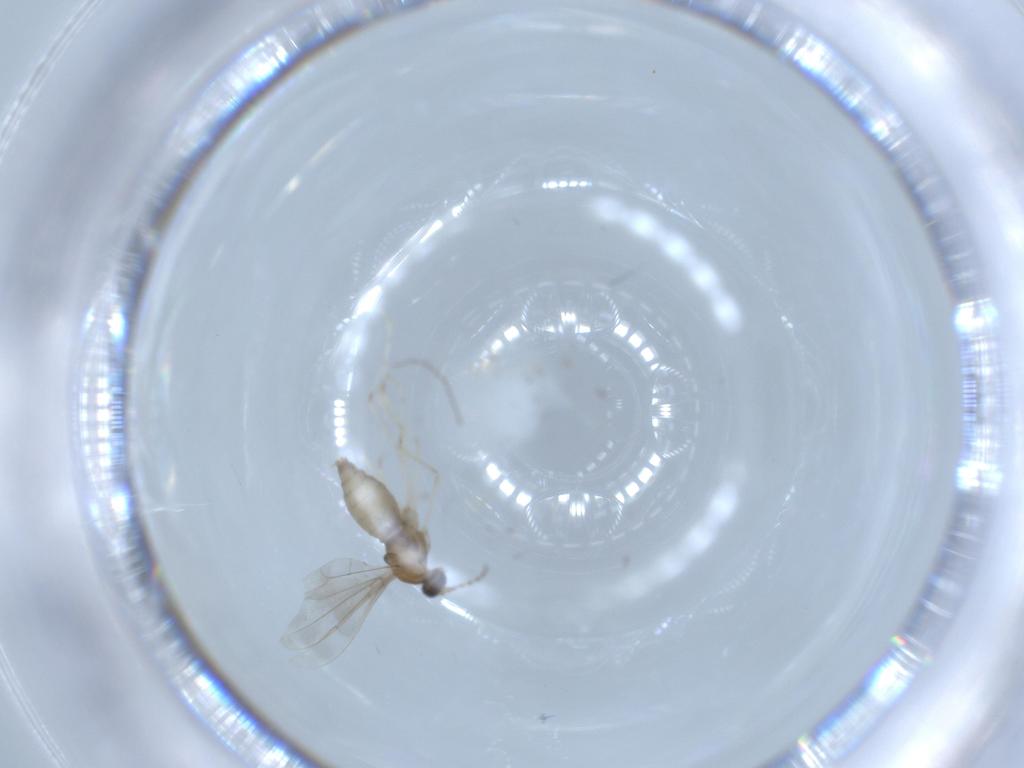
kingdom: Animalia
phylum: Arthropoda
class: Insecta
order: Diptera
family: Cecidomyiidae
